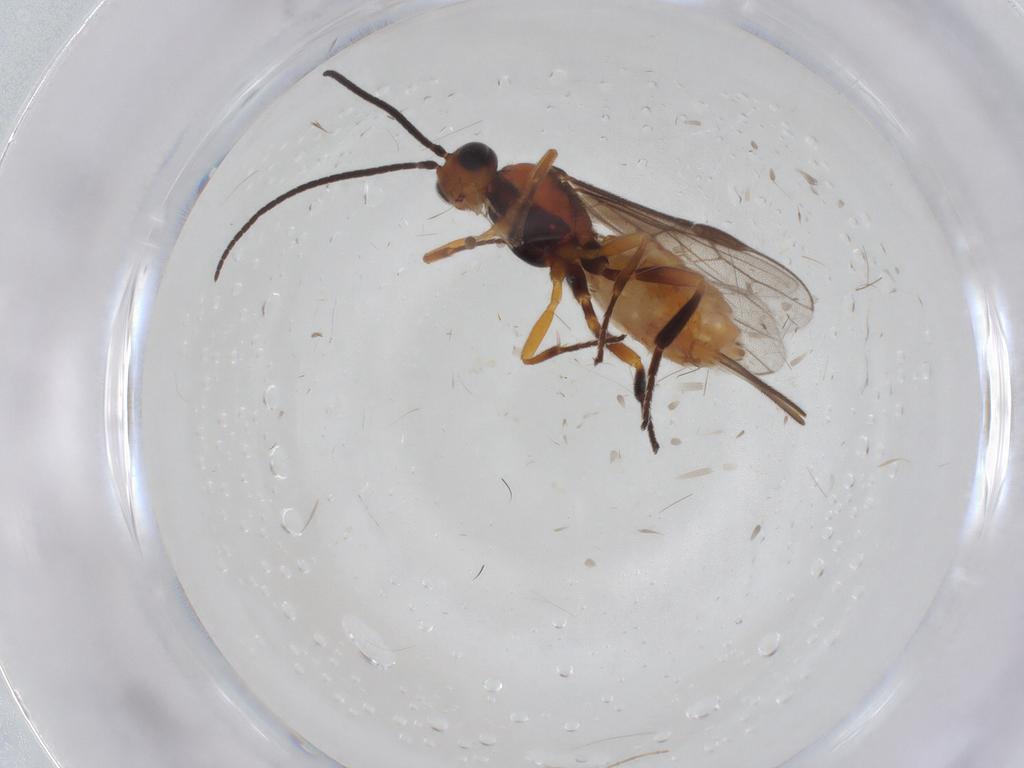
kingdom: Animalia
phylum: Arthropoda
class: Insecta
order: Hymenoptera
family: Braconidae
